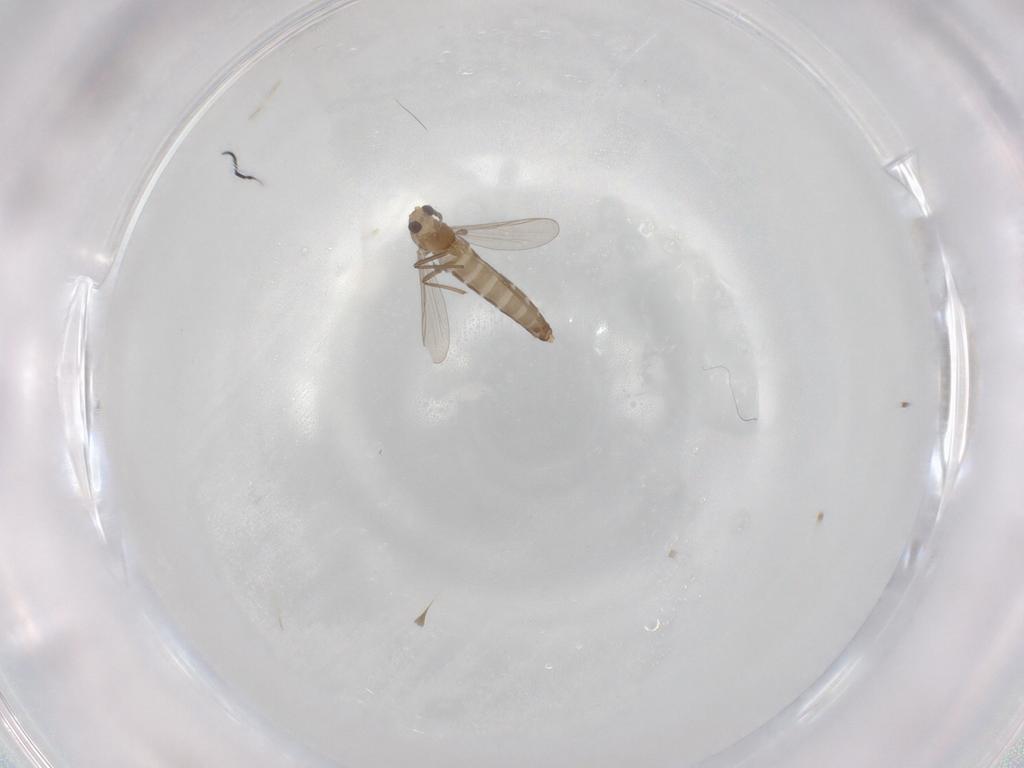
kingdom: Animalia
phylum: Arthropoda
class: Insecta
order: Diptera
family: Chironomidae
